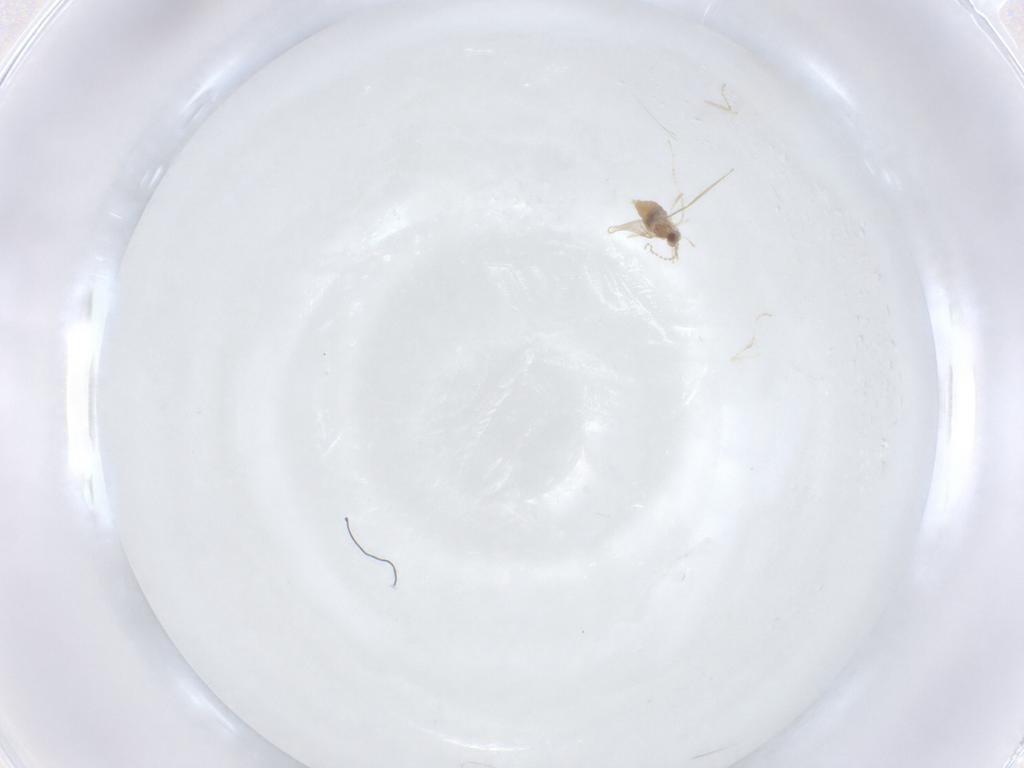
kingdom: Animalia
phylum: Arthropoda
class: Insecta
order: Diptera
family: Cecidomyiidae
